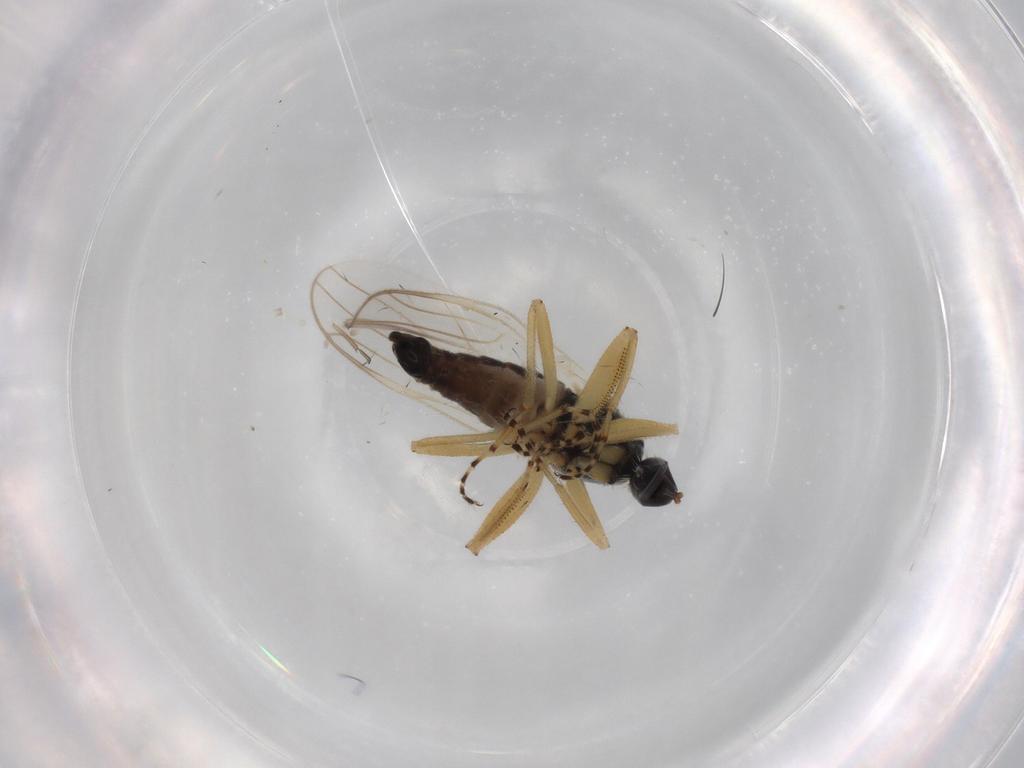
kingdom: Animalia
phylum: Arthropoda
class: Insecta
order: Diptera
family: Hybotidae
